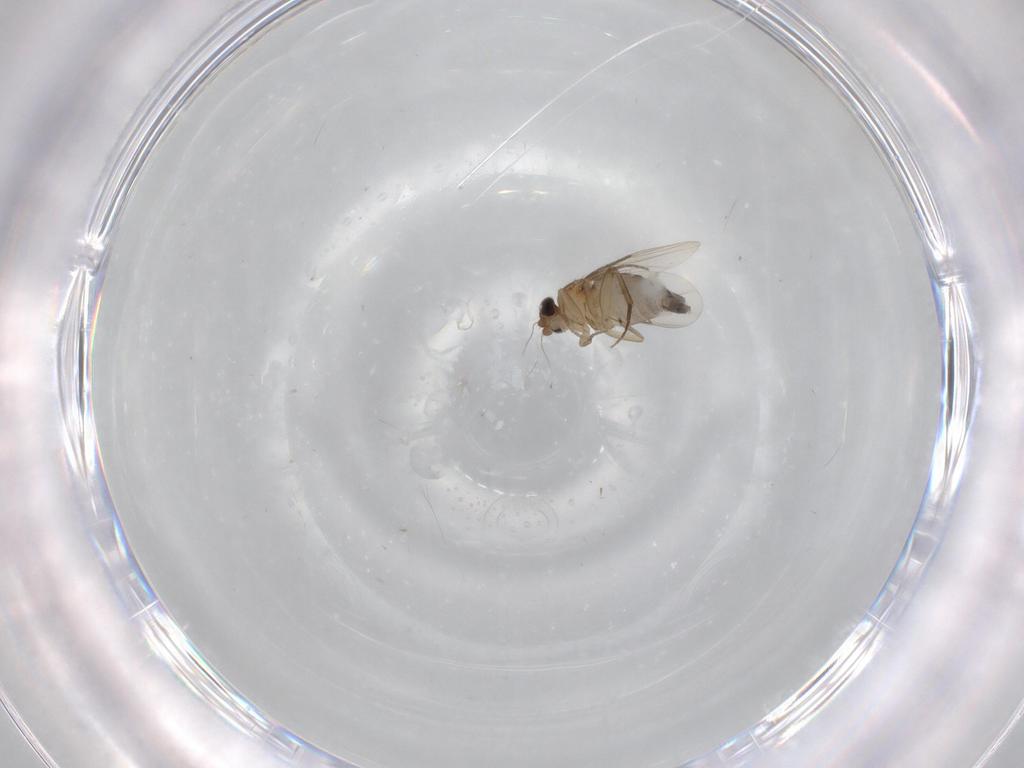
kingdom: Animalia
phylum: Arthropoda
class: Insecta
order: Diptera
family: Phoridae
